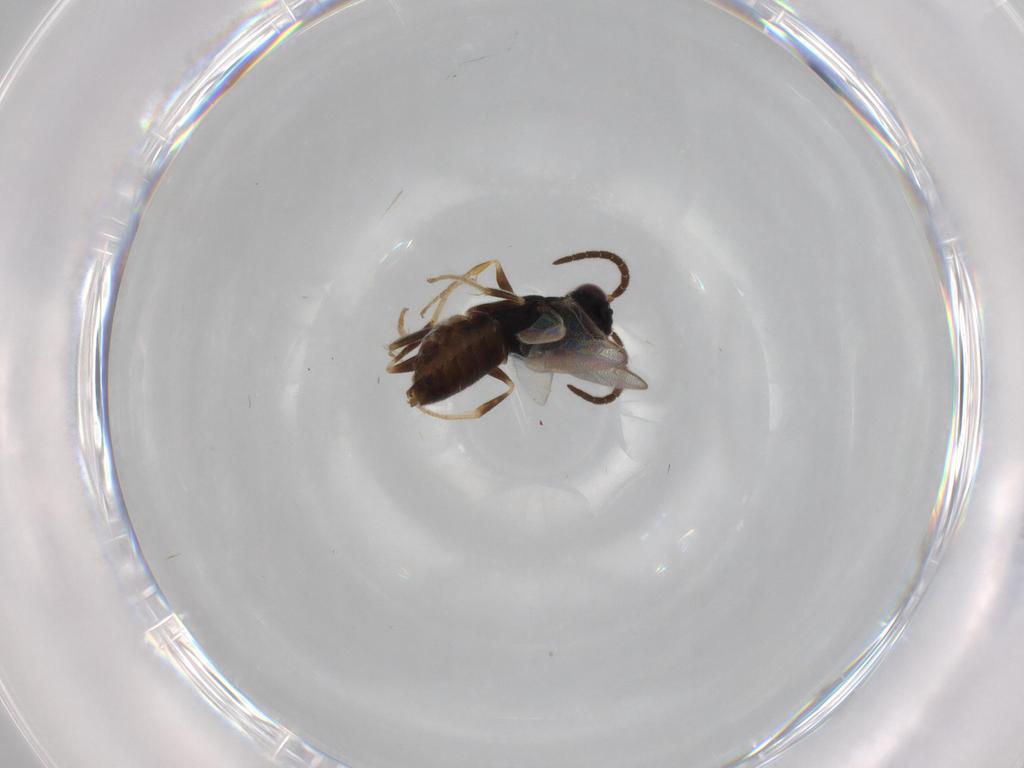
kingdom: Animalia
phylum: Arthropoda
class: Insecta
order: Hymenoptera
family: Dryinidae
